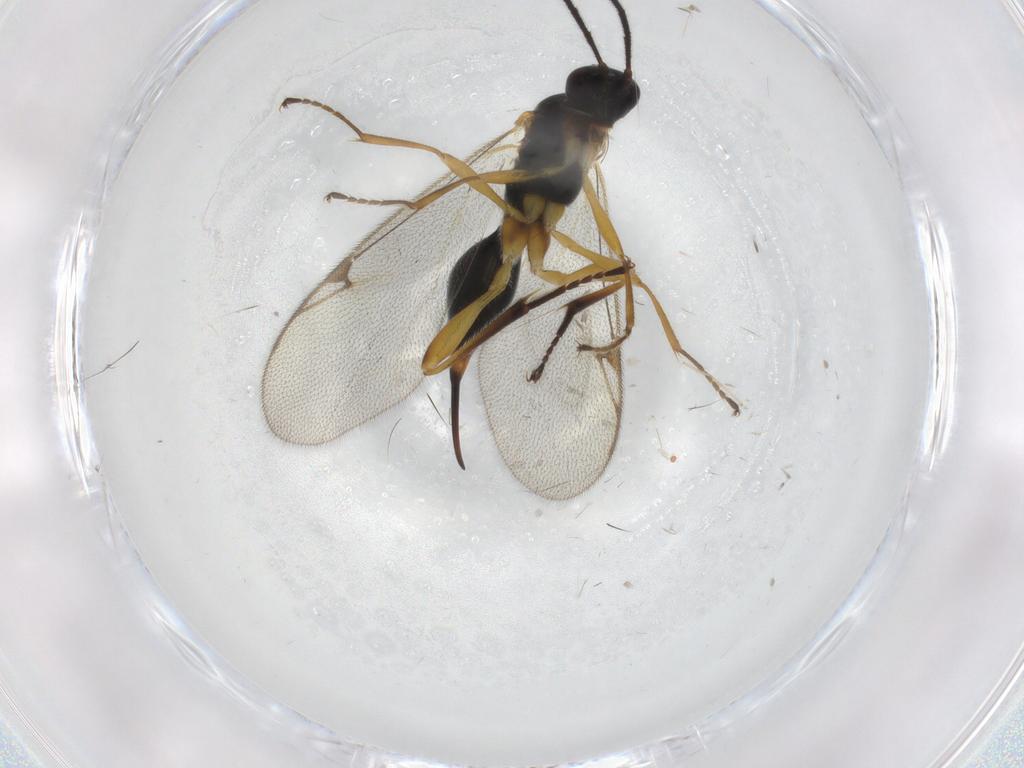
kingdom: Animalia
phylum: Arthropoda
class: Insecta
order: Hymenoptera
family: Proctotrupidae
